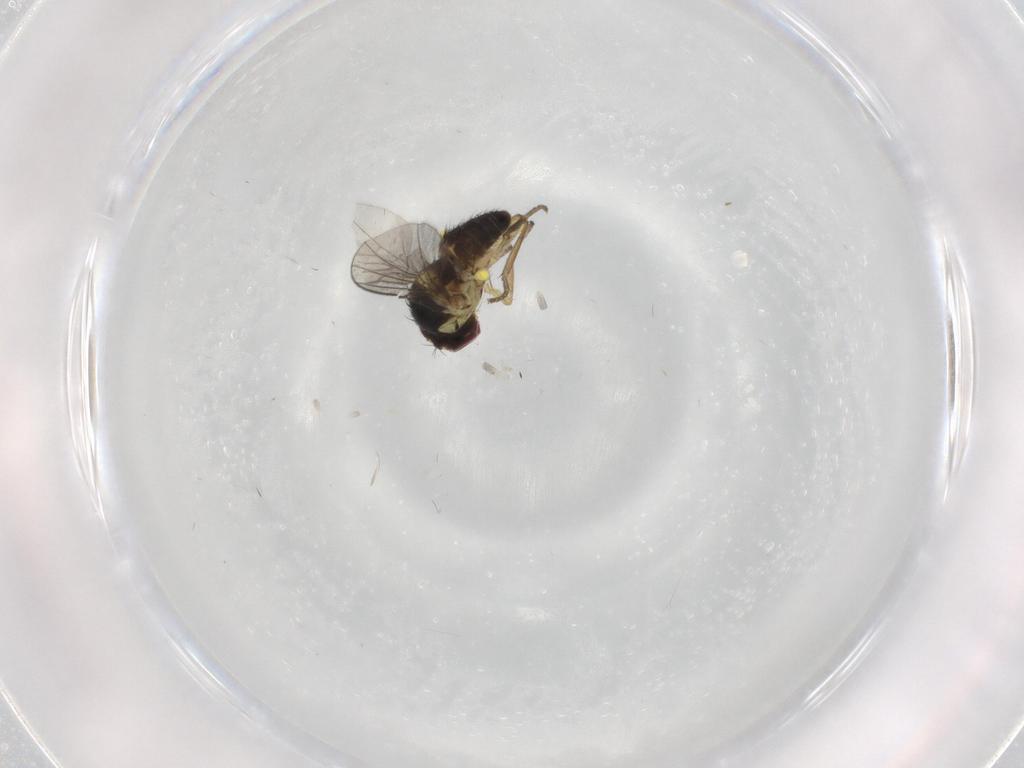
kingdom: Animalia
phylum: Arthropoda
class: Insecta
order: Diptera
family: Agromyzidae
